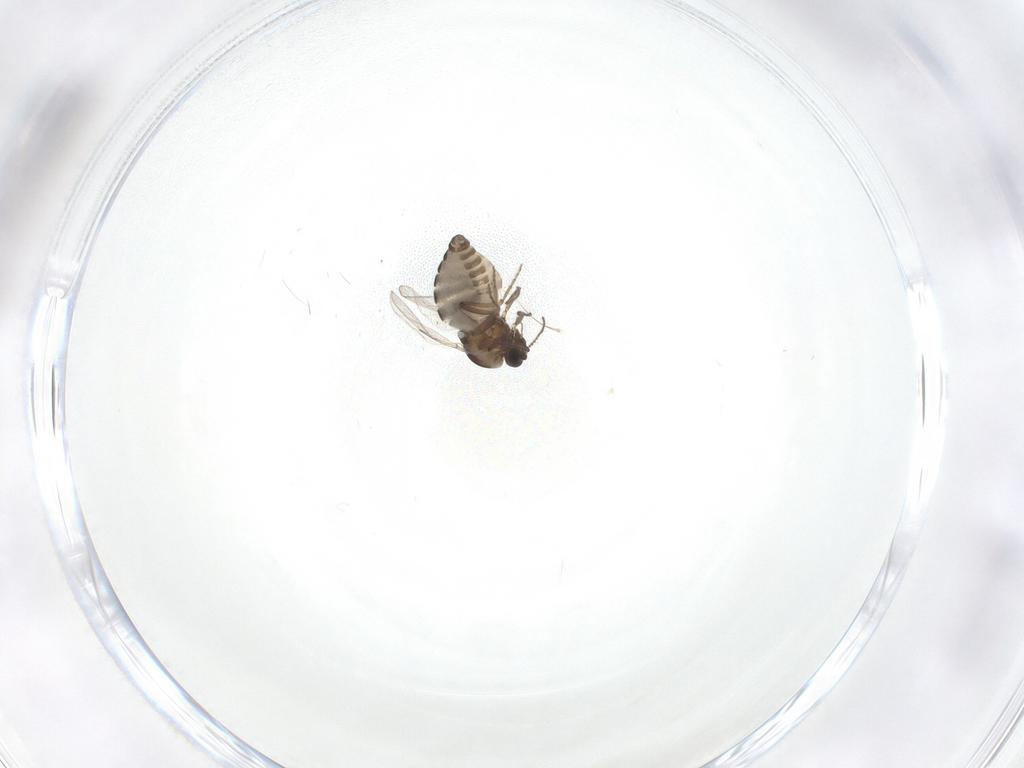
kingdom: Animalia
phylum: Arthropoda
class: Insecta
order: Diptera
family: Ceratopogonidae
